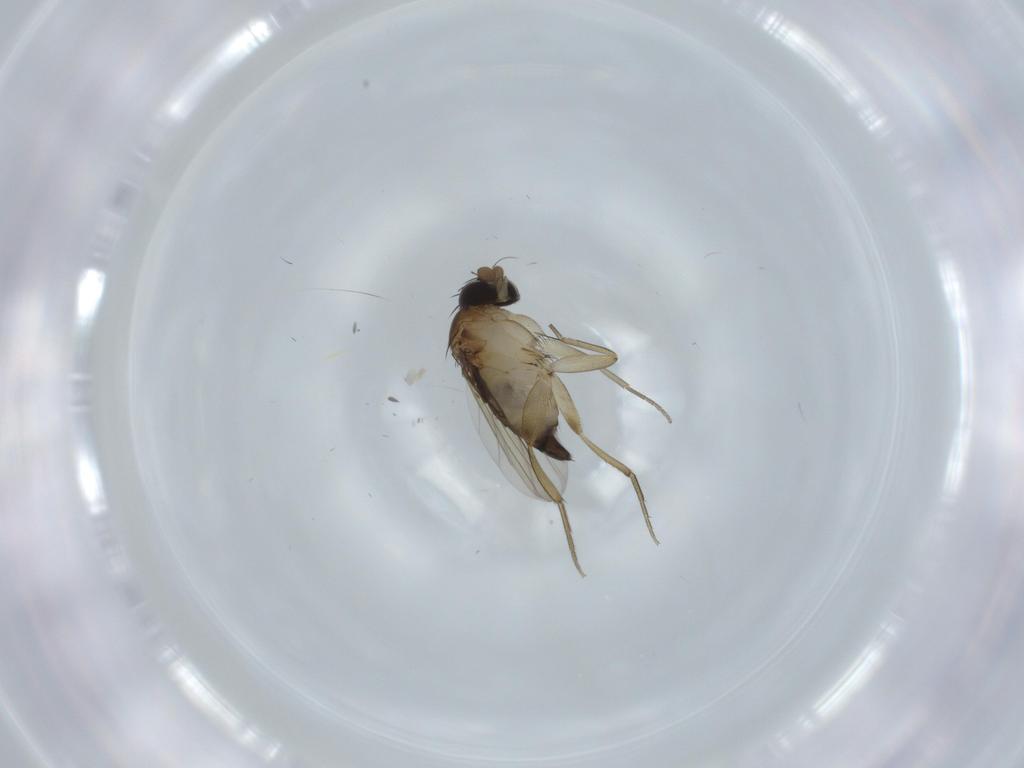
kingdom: Animalia
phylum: Arthropoda
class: Insecta
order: Diptera
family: Phoridae
